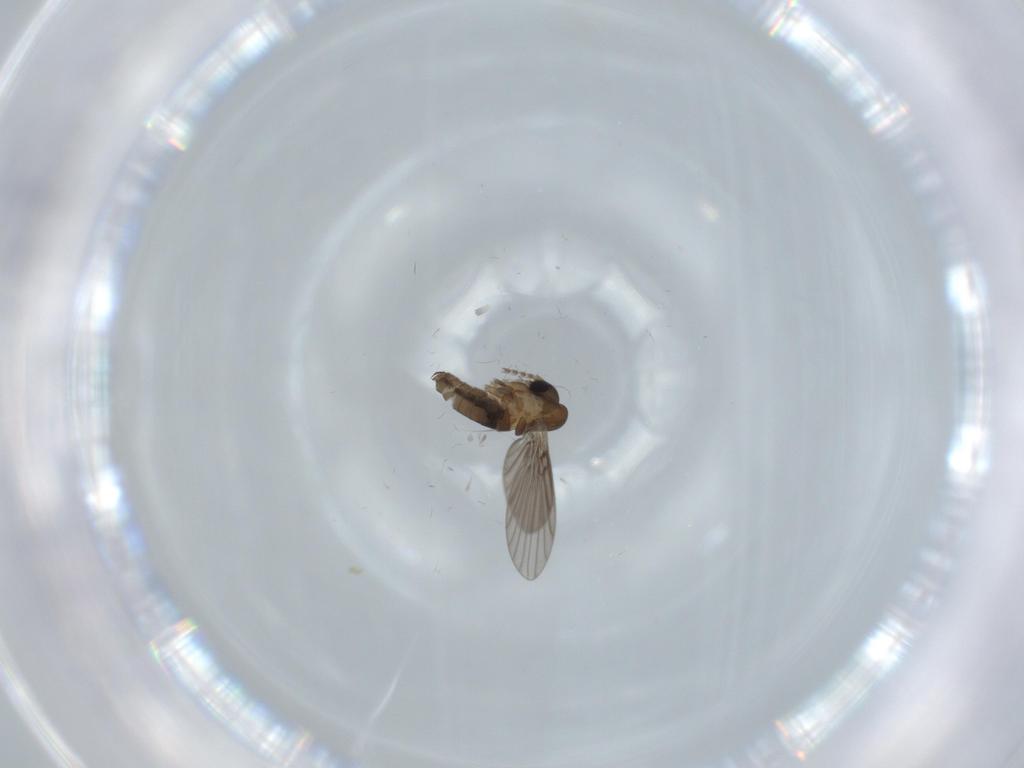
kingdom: Animalia
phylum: Arthropoda
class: Insecta
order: Diptera
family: Psychodidae
